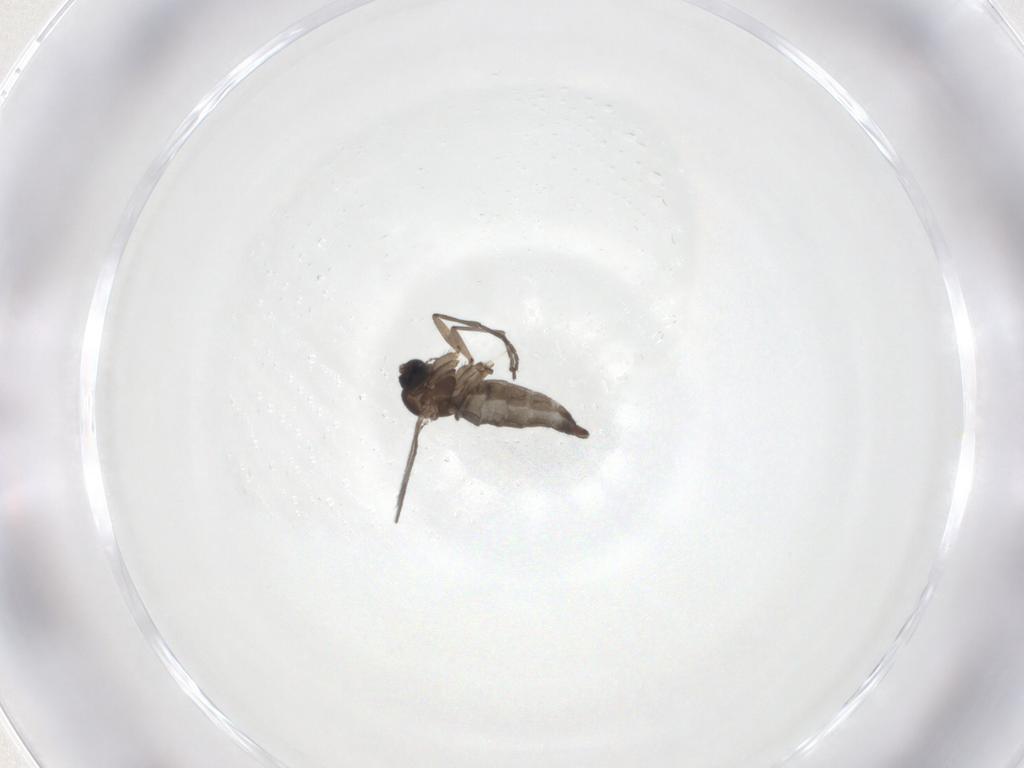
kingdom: Animalia
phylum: Arthropoda
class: Insecta
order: Diptera
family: Sciaridae
